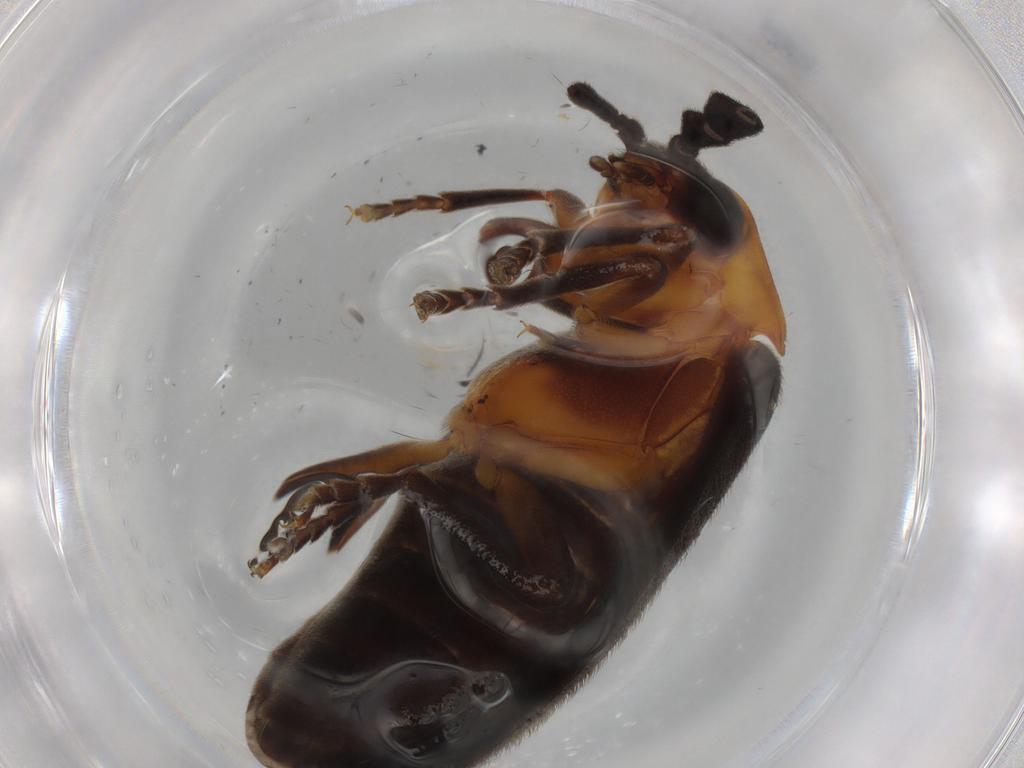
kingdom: Animalia
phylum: Arthropoda
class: Insecta
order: Coleoptera
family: Lampyridae
